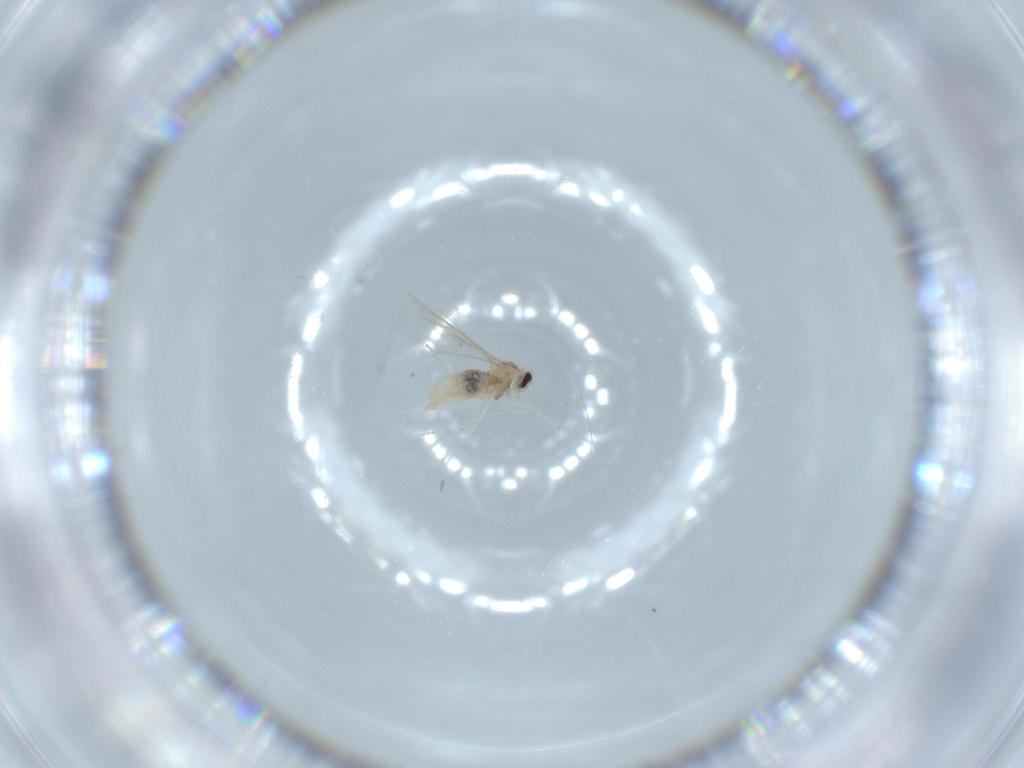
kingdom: Animalia
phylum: Arthropoda
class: Insecta
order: Diptera
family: Cecidomyiidae
